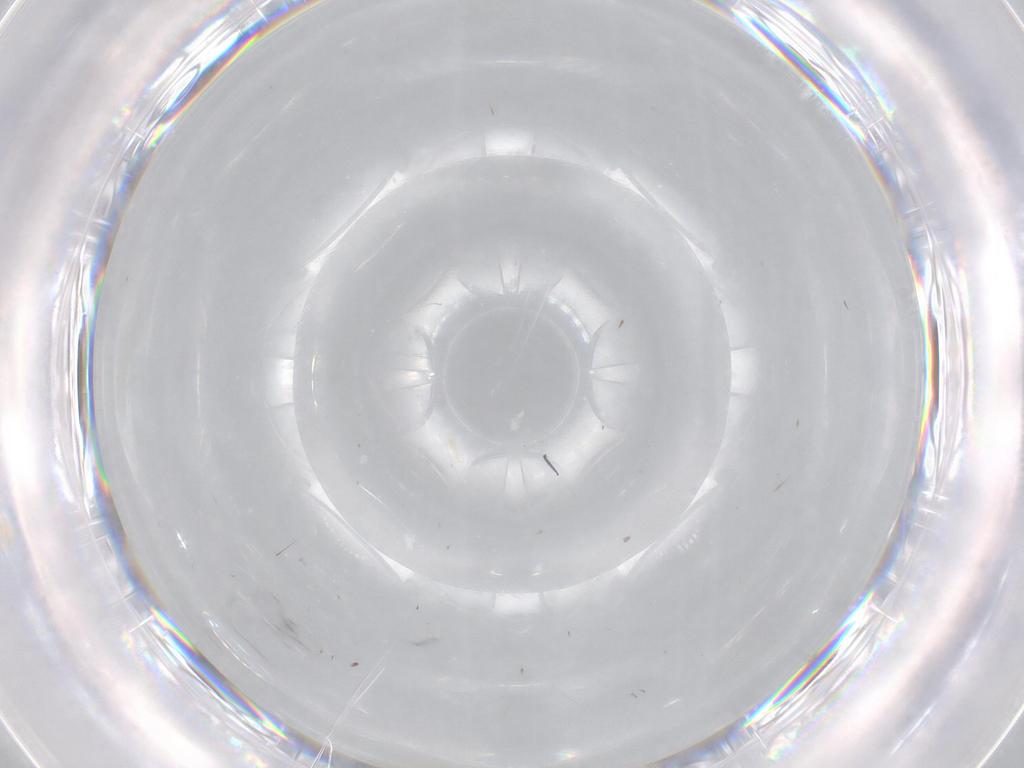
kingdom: Animalia
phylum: Arthropoda
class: Insecta
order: Diptera
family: Cecidomyiidae
